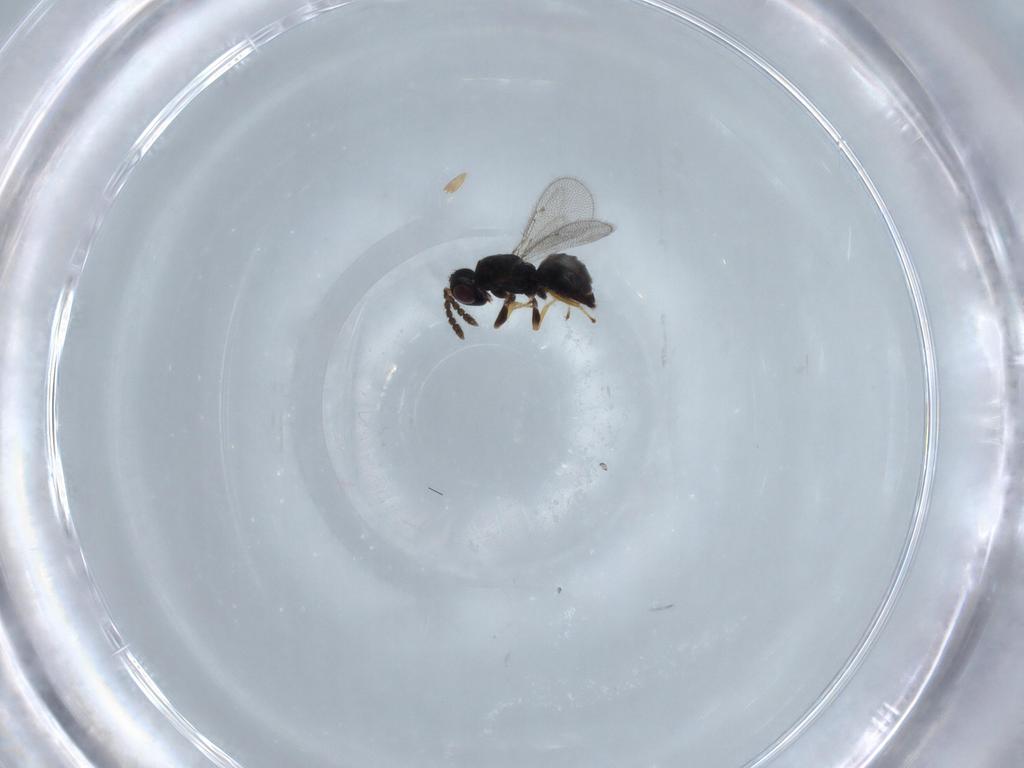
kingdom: Animalia
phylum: Arthropoda
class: Insecta
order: Hymenoptera
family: Eulophidae
